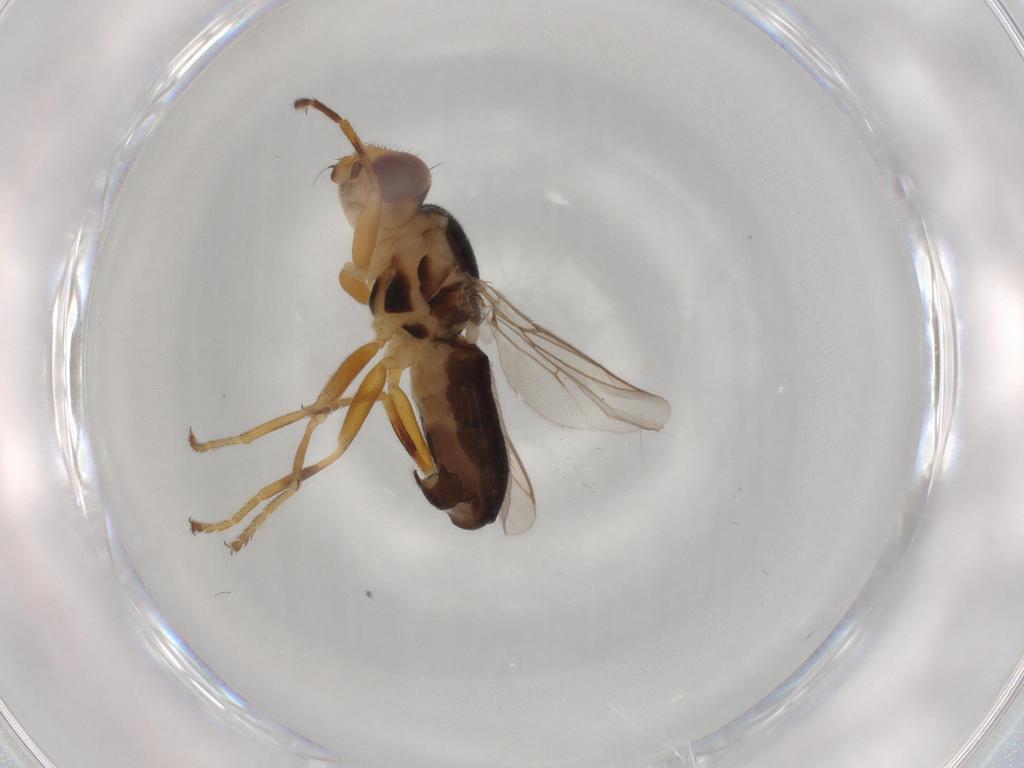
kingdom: Animalia
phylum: Arthropoda
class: Insecta
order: Diptera
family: Chloropidae
